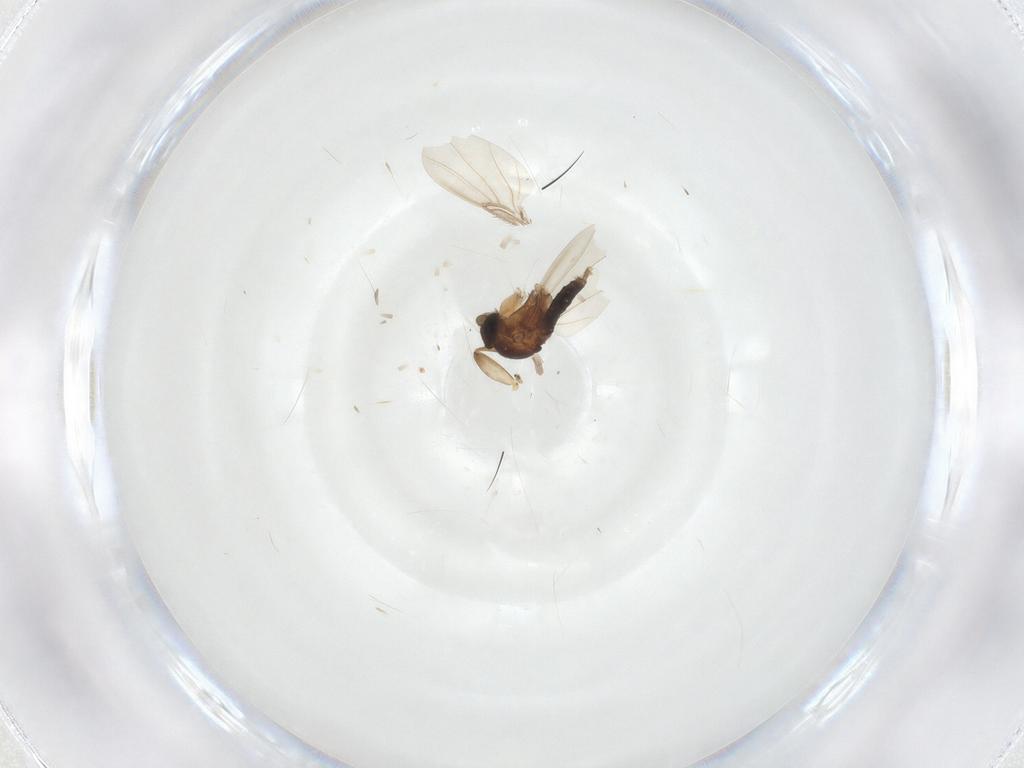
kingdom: Animalia
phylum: Arthropoda
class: Insecta
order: Diptera
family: Phoridae
